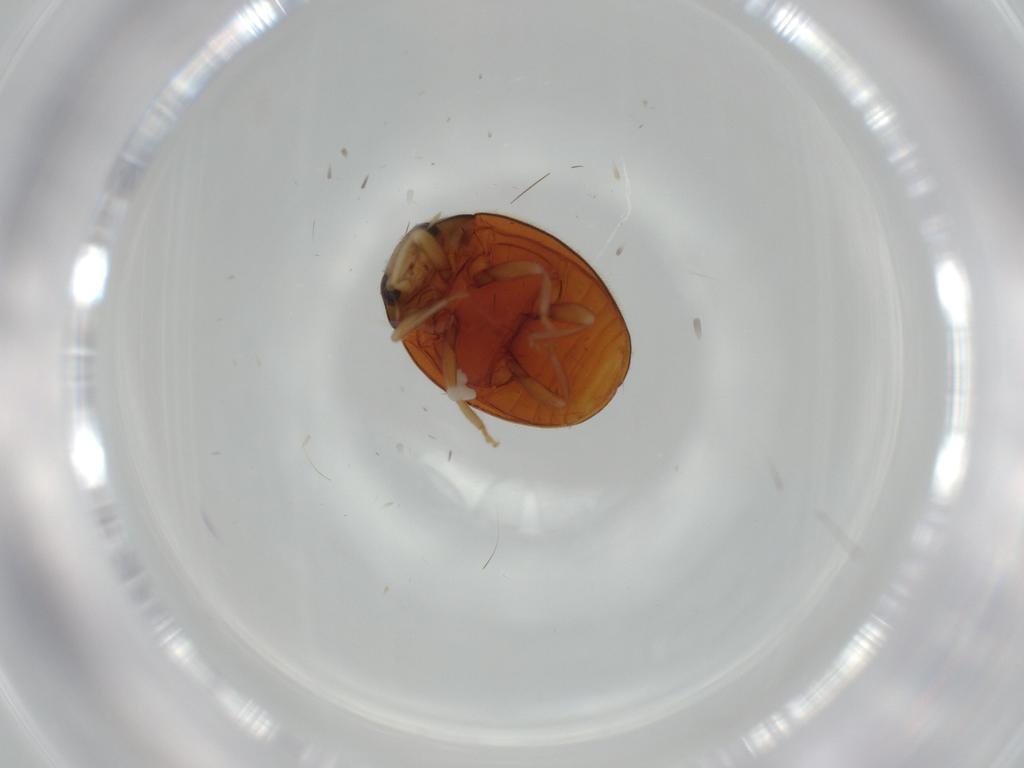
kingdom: Animalia
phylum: Arthropoda
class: Insecta
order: Coleoptera
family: Coccinellidae
